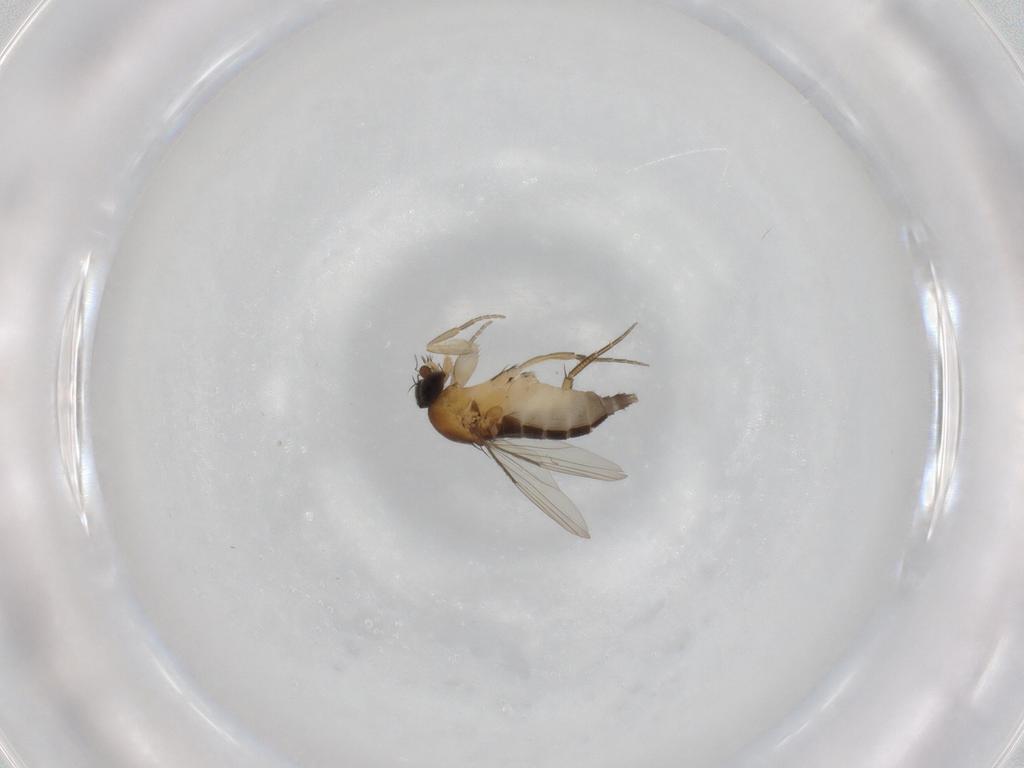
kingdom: Animalia
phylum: Arthropoda
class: Insecta
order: Diptera
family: Phoridae
